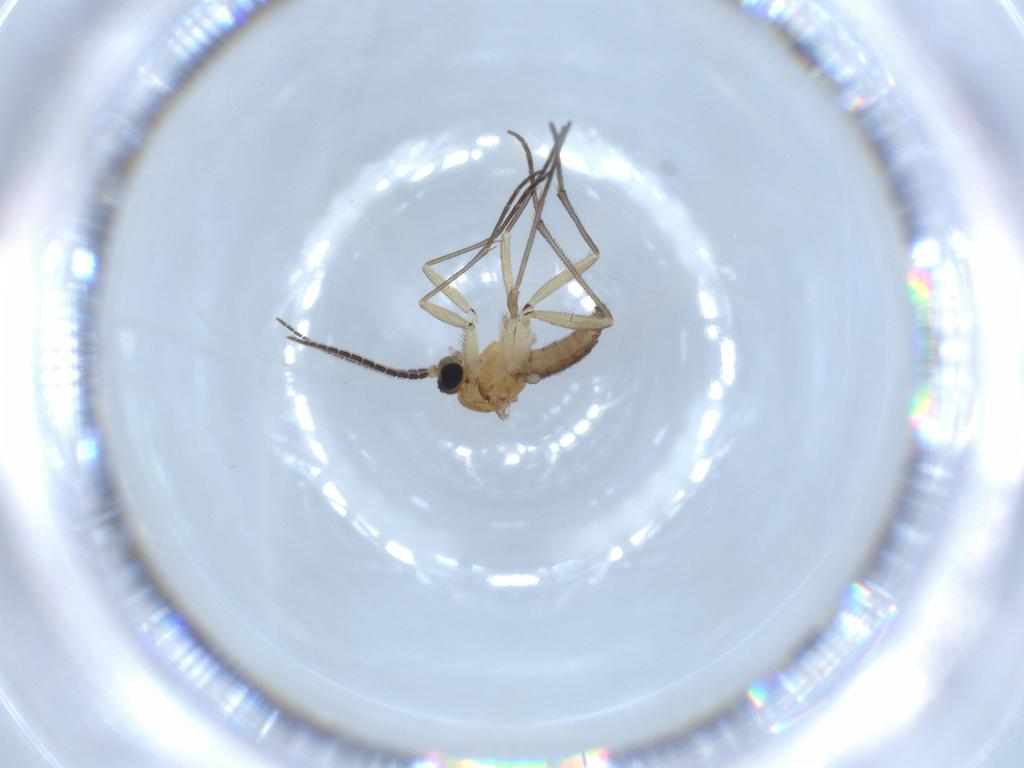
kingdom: Animalia
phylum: Arthropoda
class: Insecta
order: Diptera
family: Sciaridae
